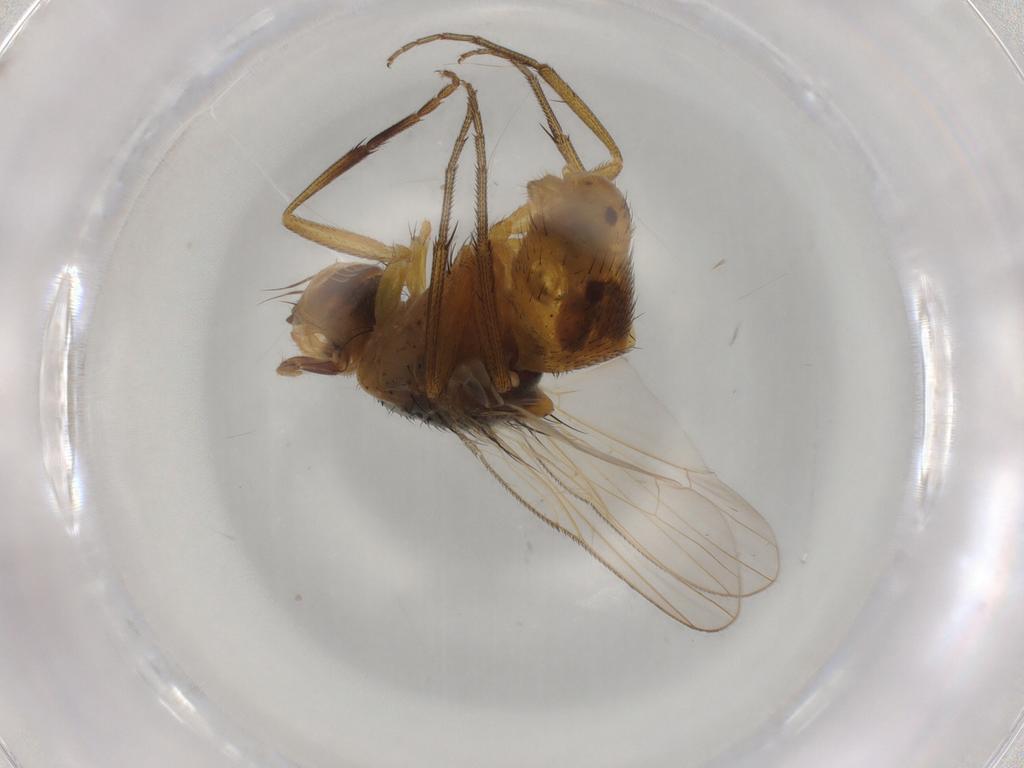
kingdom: Animalia
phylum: Arthropoda
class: Insecta
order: Diptera
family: Muscidae
